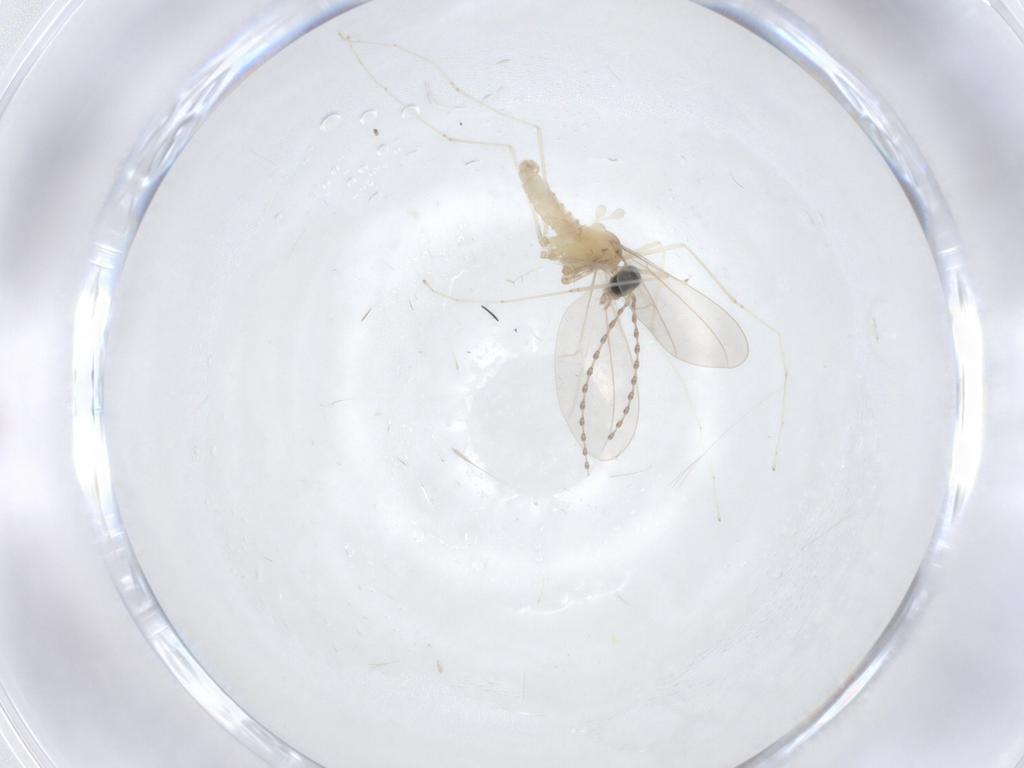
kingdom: Animalia
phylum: Arthropoda
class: Insecta
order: Diptera
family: Cecidomyiidae
